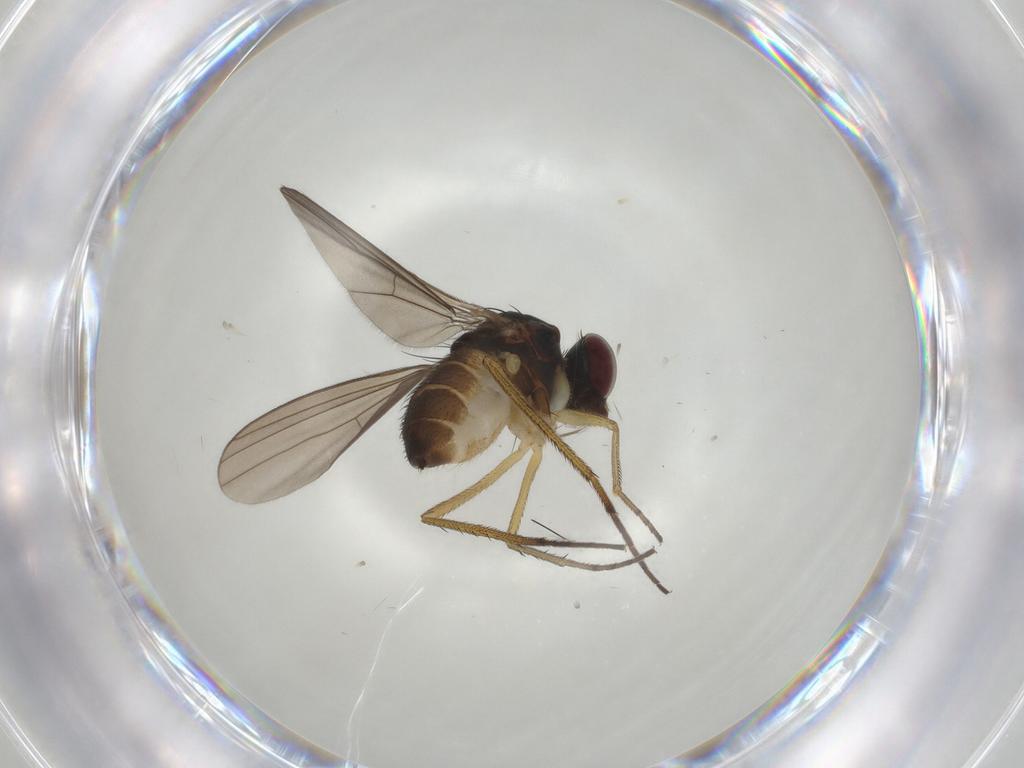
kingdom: Animalia
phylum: Arthropoda
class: Insecta
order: Diptera
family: Dolichopodidae
